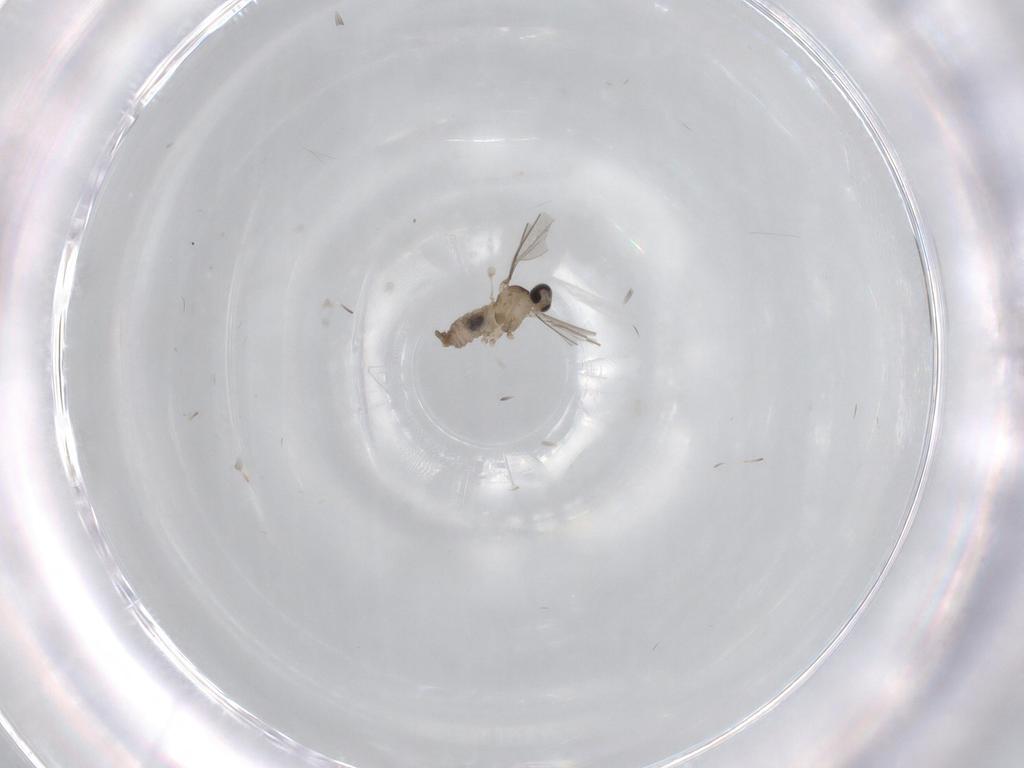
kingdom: Animalia
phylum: Arthropoda
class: Insecta
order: Diptera
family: Cecidomyiidae
